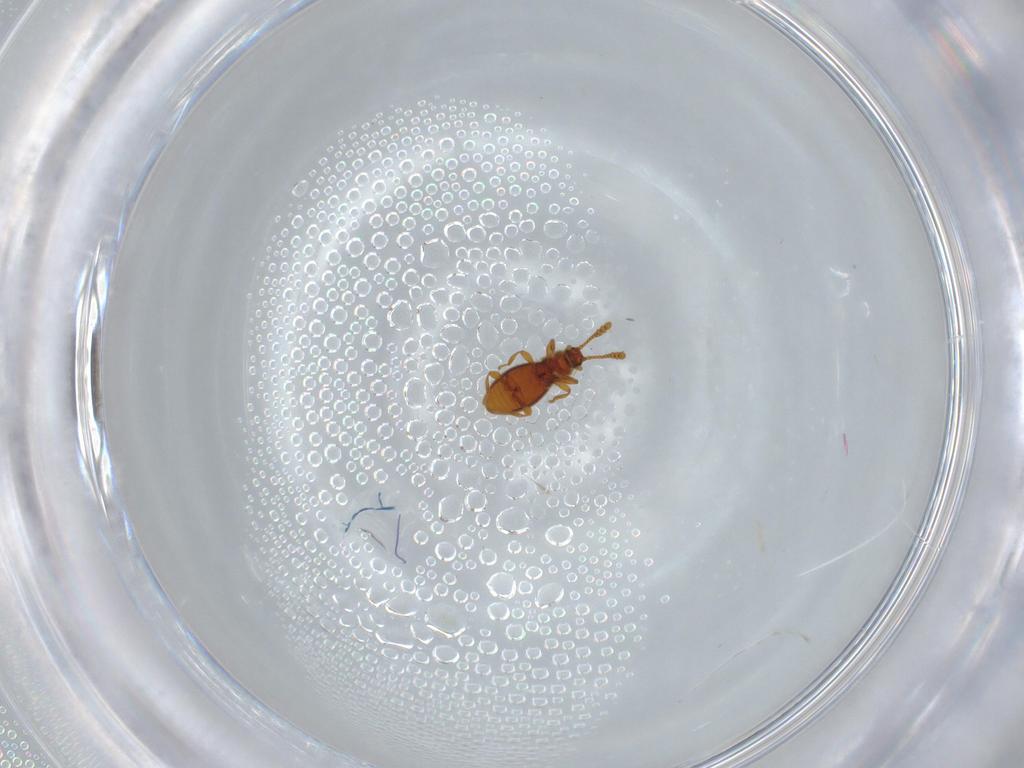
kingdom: Animalia
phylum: Arthropoda
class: Insecta
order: Coleoptera
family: Staphylinidae
